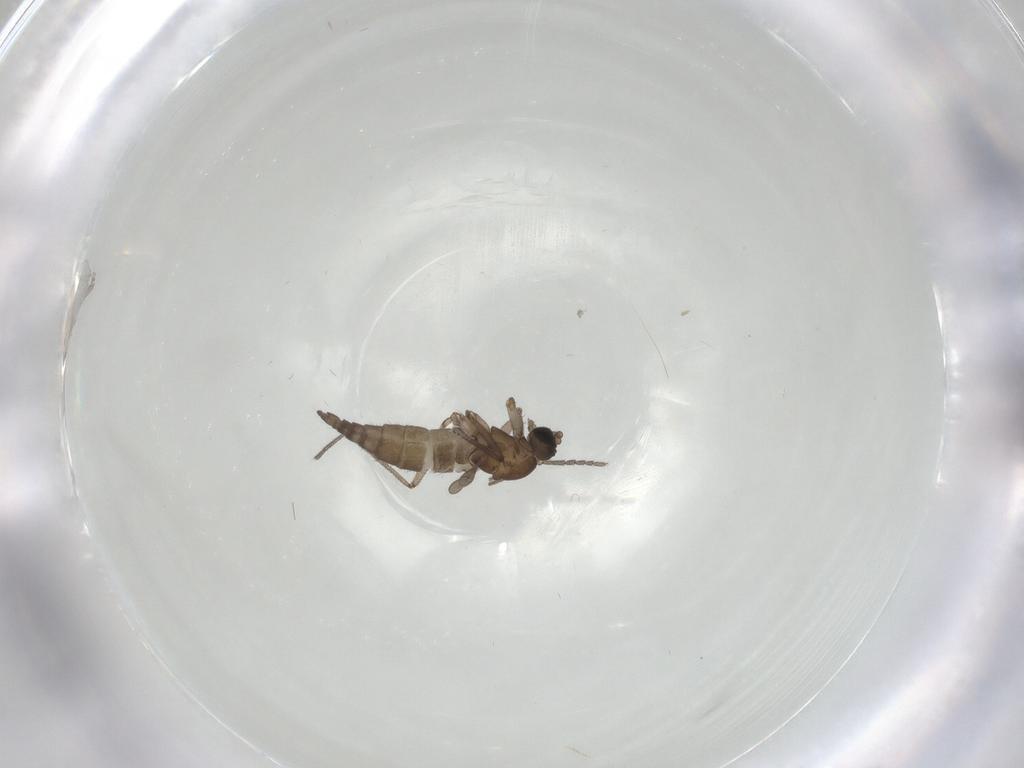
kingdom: Animalia
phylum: Arthropoda
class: Insecta
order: Diptera
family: Sciaridae
